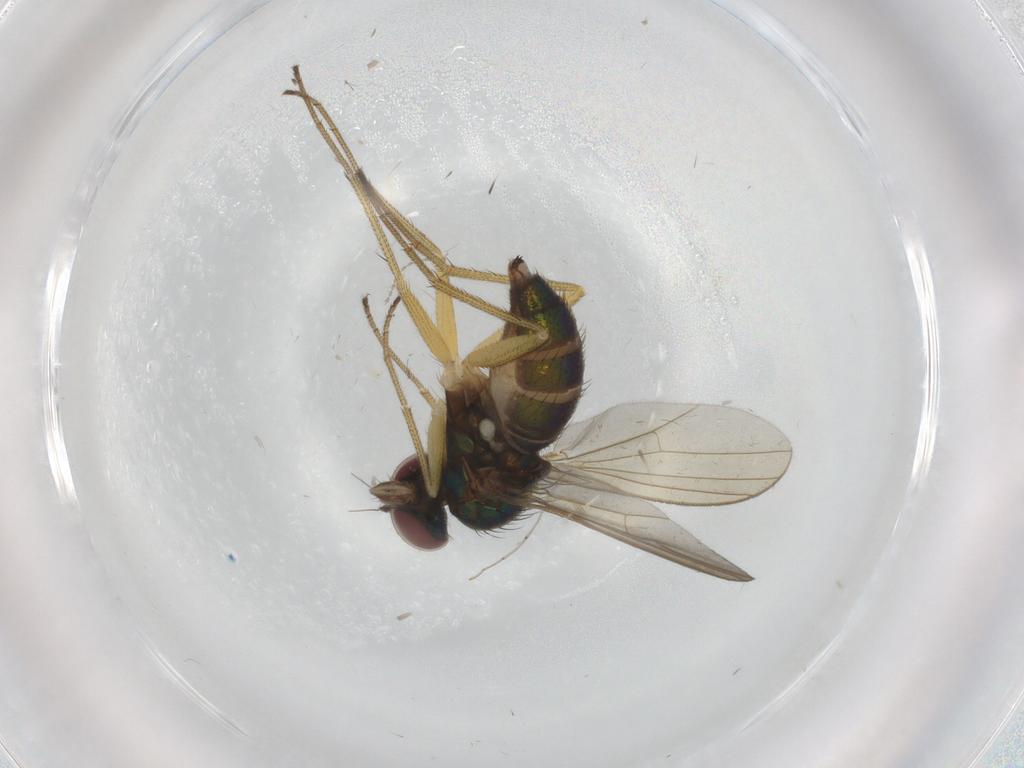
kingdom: Animalia
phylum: Arthropoda
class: Insecta
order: Diptera
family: Dolichopodidae
